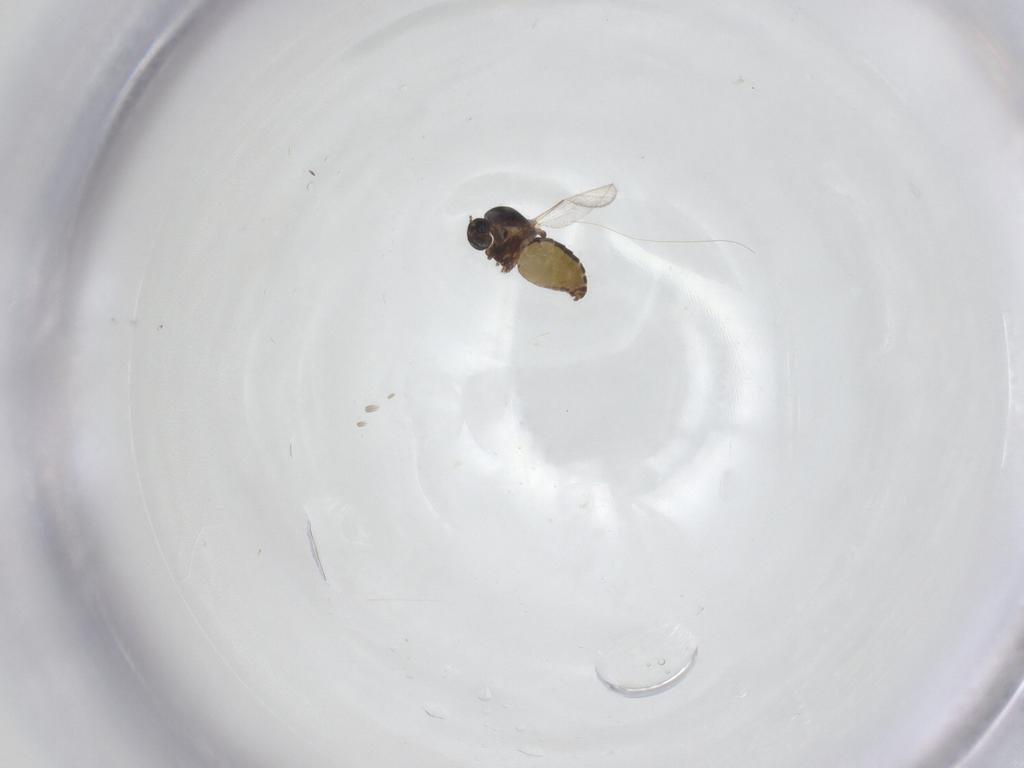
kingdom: Animalia
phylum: Arthropoda
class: Insecta
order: Diptera
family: Ceratopogonidae
